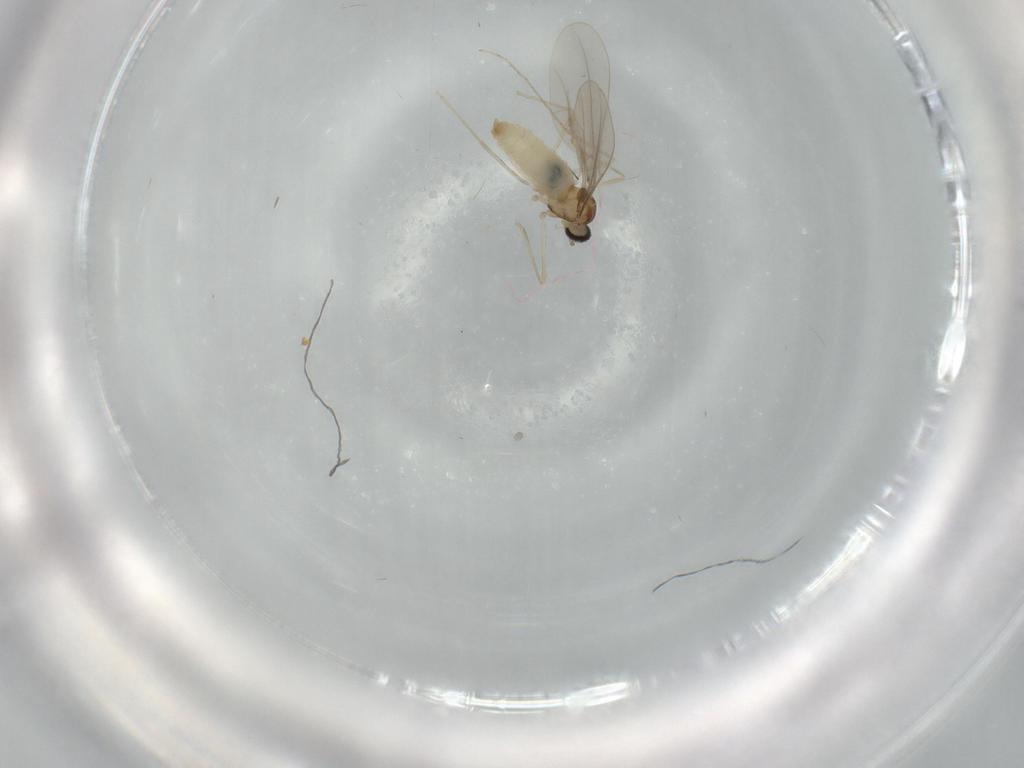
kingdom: Animalia
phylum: Arthropoda
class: Insecta
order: Diptera
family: Cecidomyiidae
